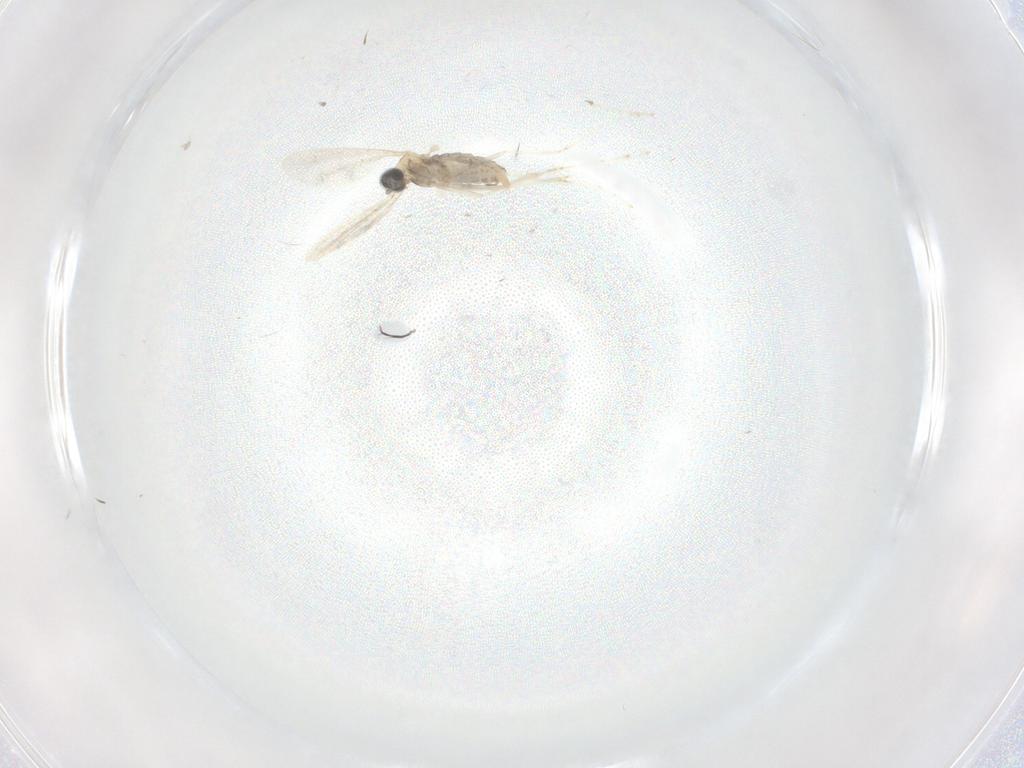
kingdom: Animalia
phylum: Arthropoda
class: Insecta
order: Diptera
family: Cecidomyiidae
